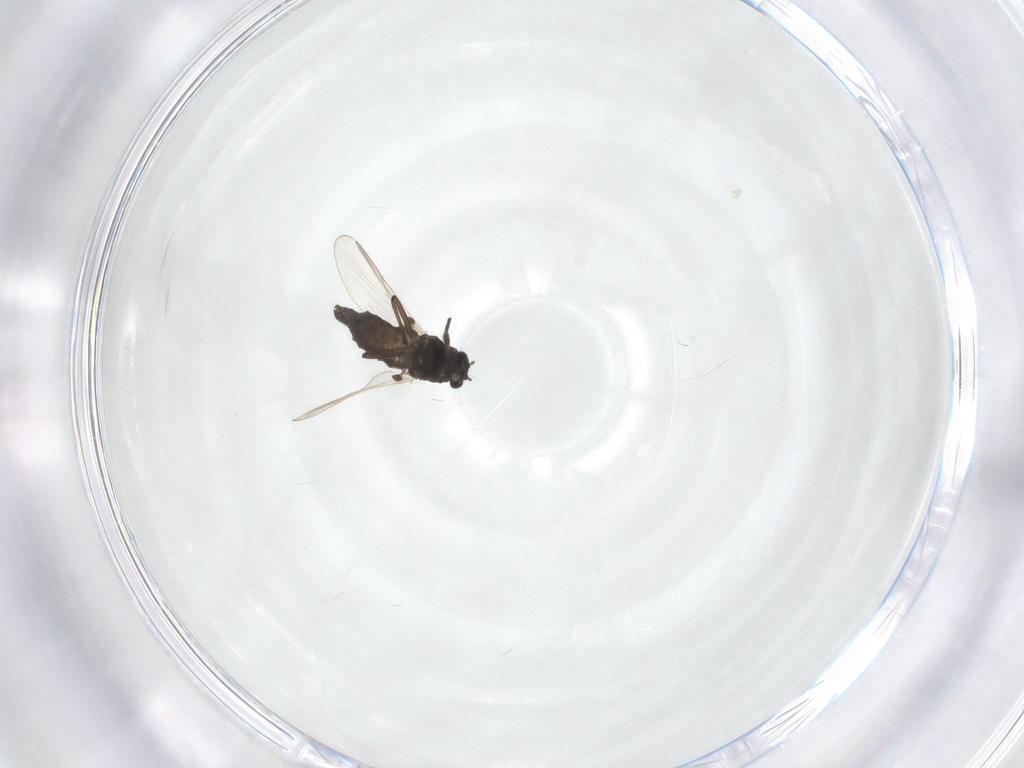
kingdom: Animalia
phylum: Arthropoda
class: Insecta
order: Diptera
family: Chironomidae
